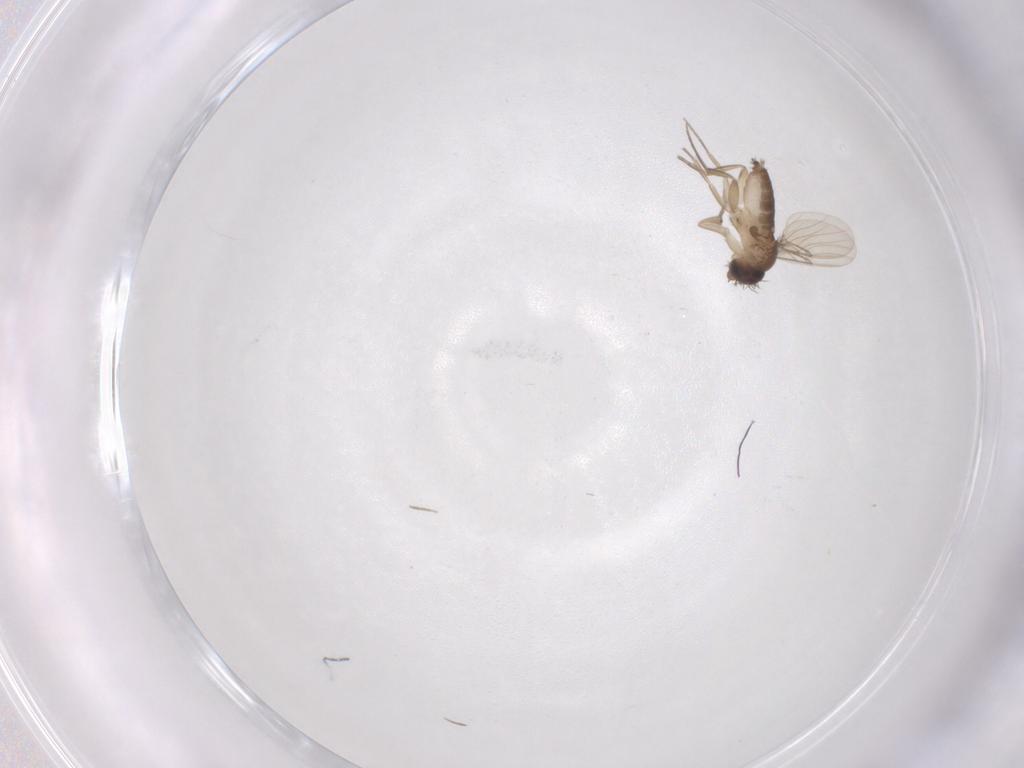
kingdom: Animalia
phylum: Arthropoda
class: Insecta
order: Diptera
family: Phoridae
